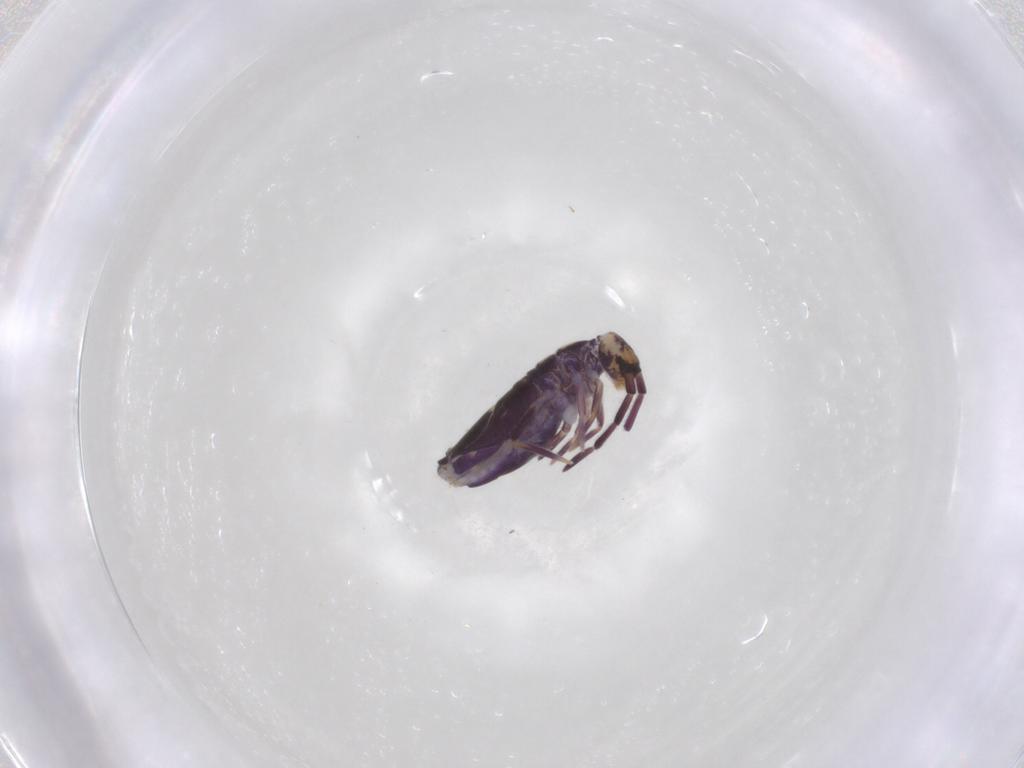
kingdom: Animalia
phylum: Arthropoda
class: Collembola
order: Entomobryomorpha
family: Entomobryidae
